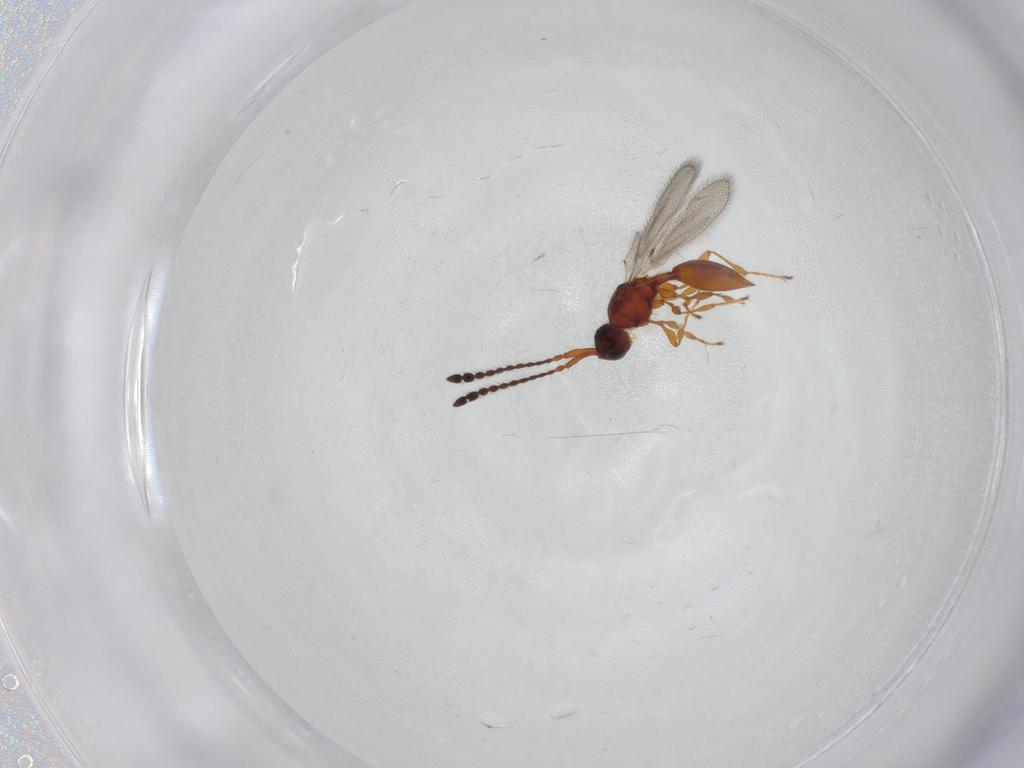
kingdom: Animalia
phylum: Arthropoda
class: Insecta
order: Hymenoptera
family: Diapriidae
